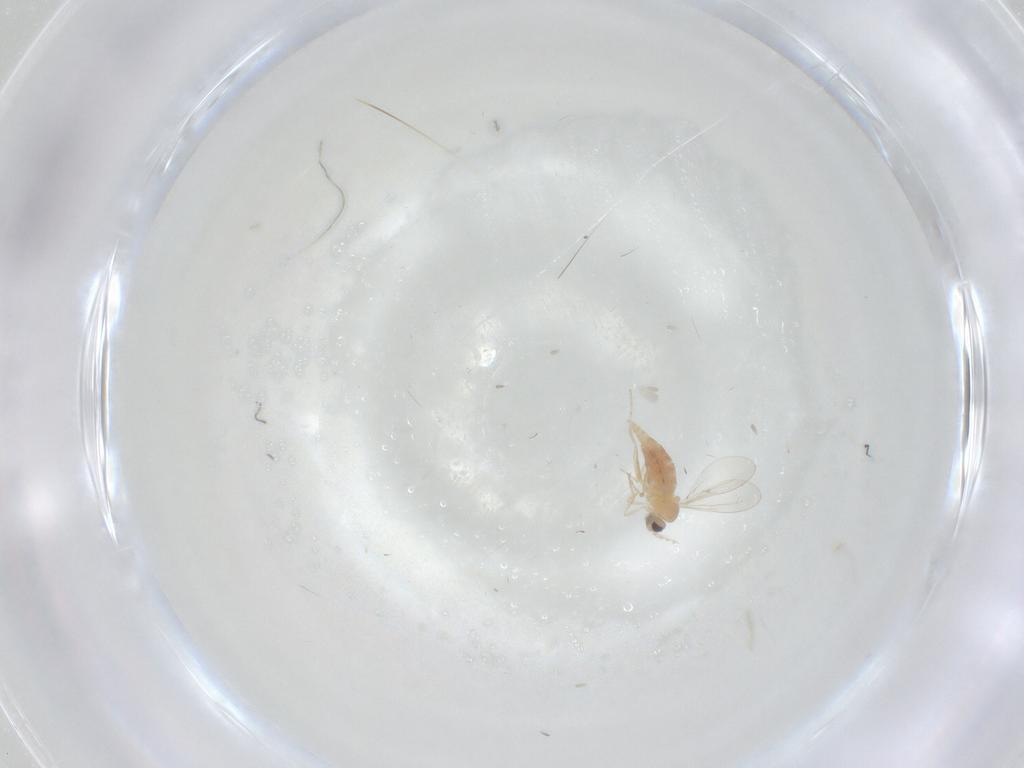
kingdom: Animalia
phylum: Arthropoda
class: Insecta
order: Diptera
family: Cecidomyiidae
